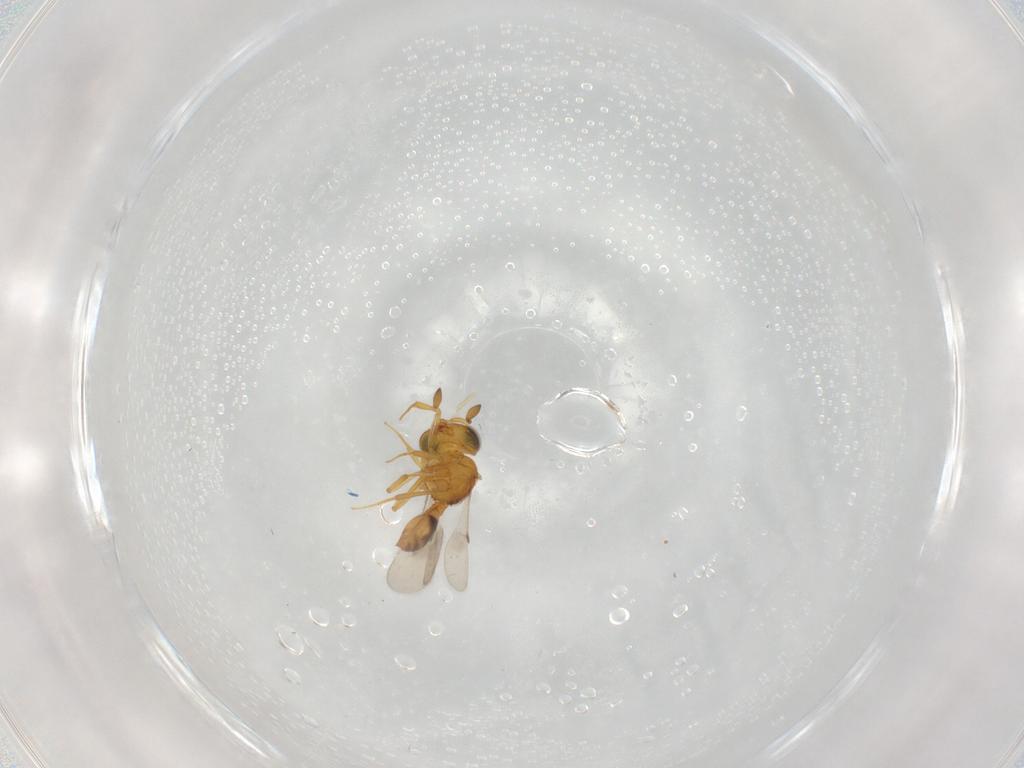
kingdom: Animalia
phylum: Arthropoda
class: Insecta
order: Hymenoptera
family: Scelionidae
